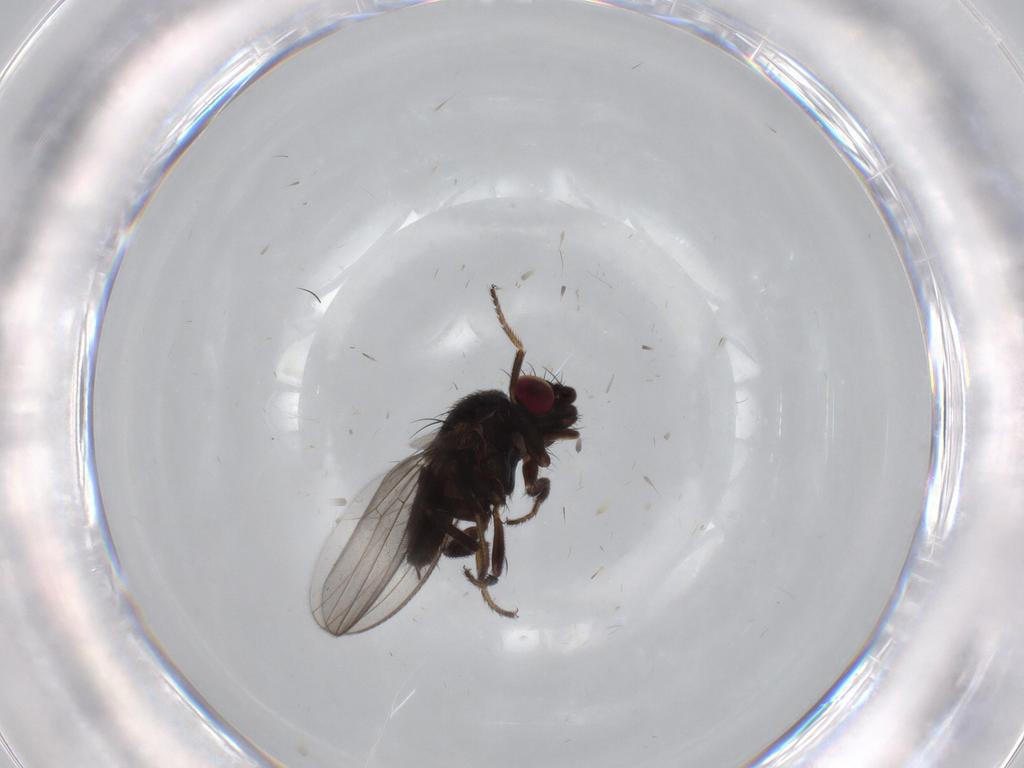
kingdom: Animalia
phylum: Arthropoda
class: Insecta
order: Diptera
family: Milichiidae
